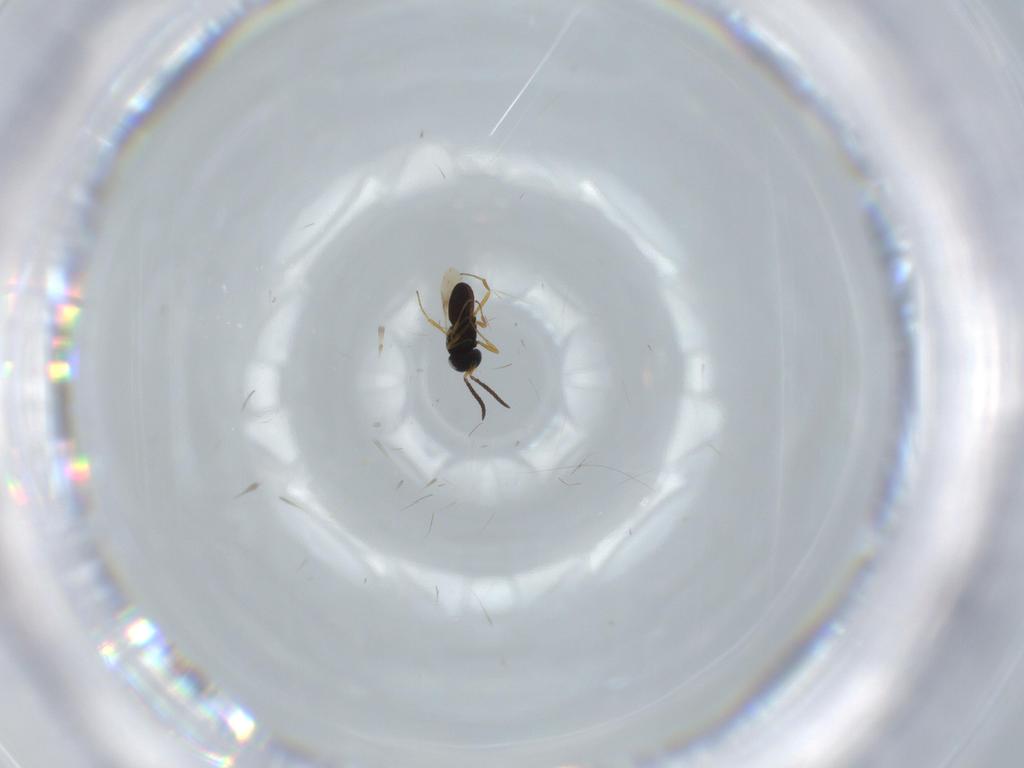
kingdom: Animalia
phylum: Arthropoda
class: Insecta
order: Hymenoptera
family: Scelionidae
